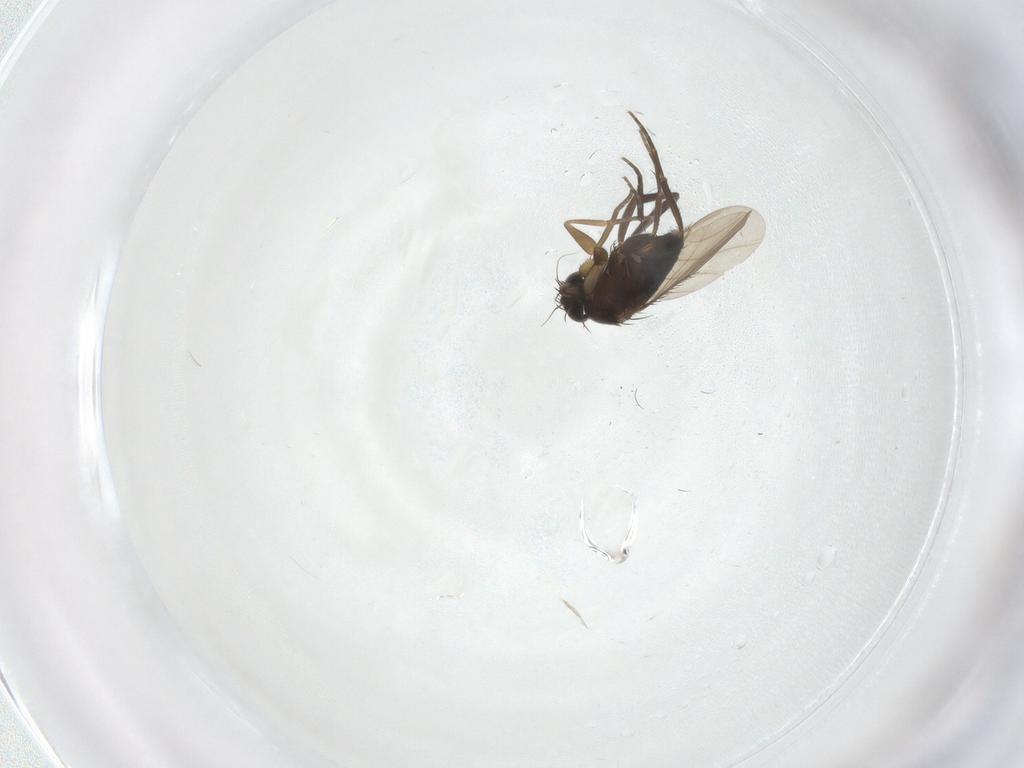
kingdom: Animalia
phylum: Arthropoda
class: Insecta
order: Diptera
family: Phoridae
